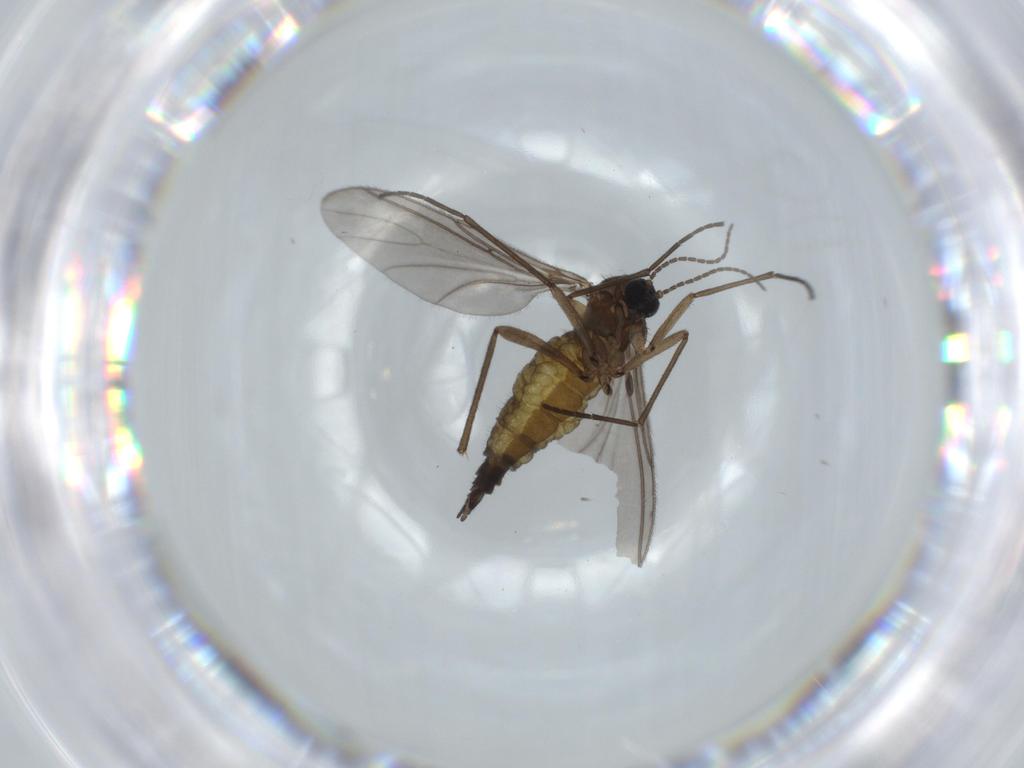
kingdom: Animalia
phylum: Arthropoda
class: Insecta
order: Diptera
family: Sciaridae
